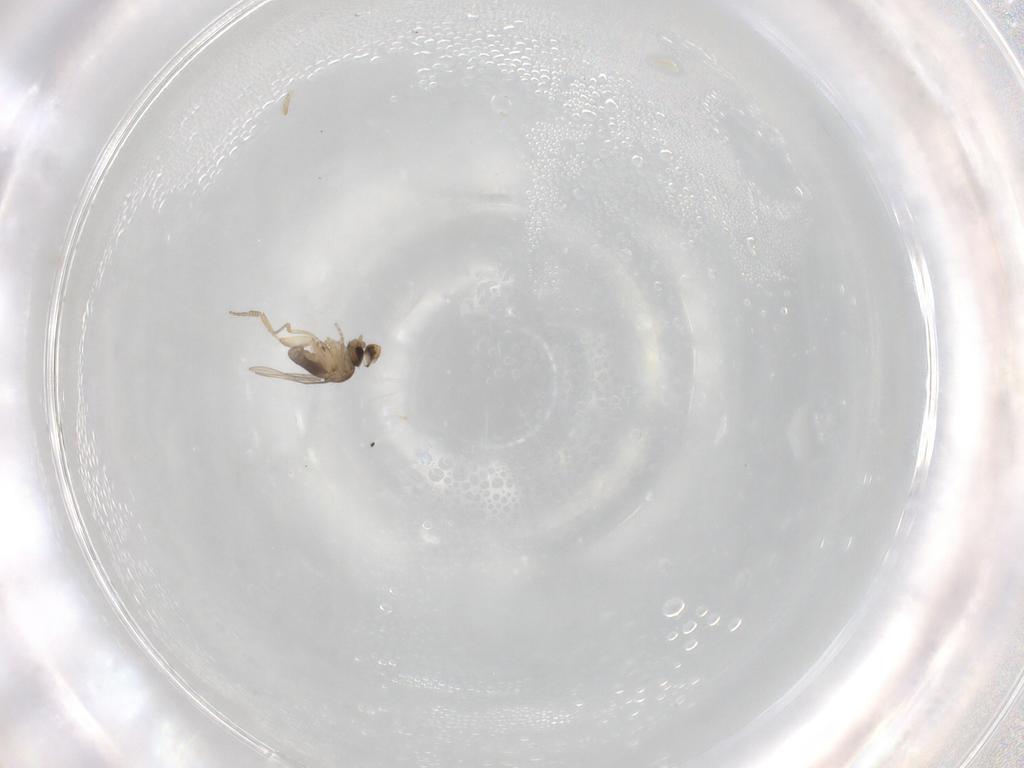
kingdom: Animalia
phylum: Arthropoda
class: Insecta
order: Diptera
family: Phoridae
